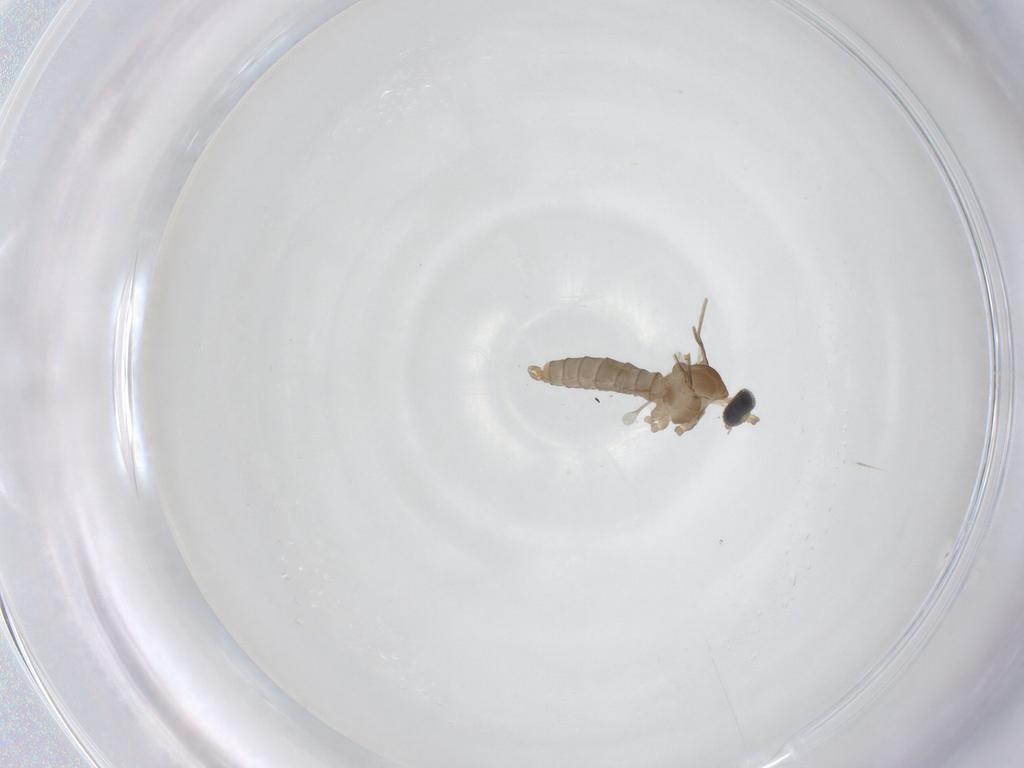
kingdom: Animalia
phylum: Arthropoda
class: Insecta
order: Diptera
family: Cecidomyiidae
